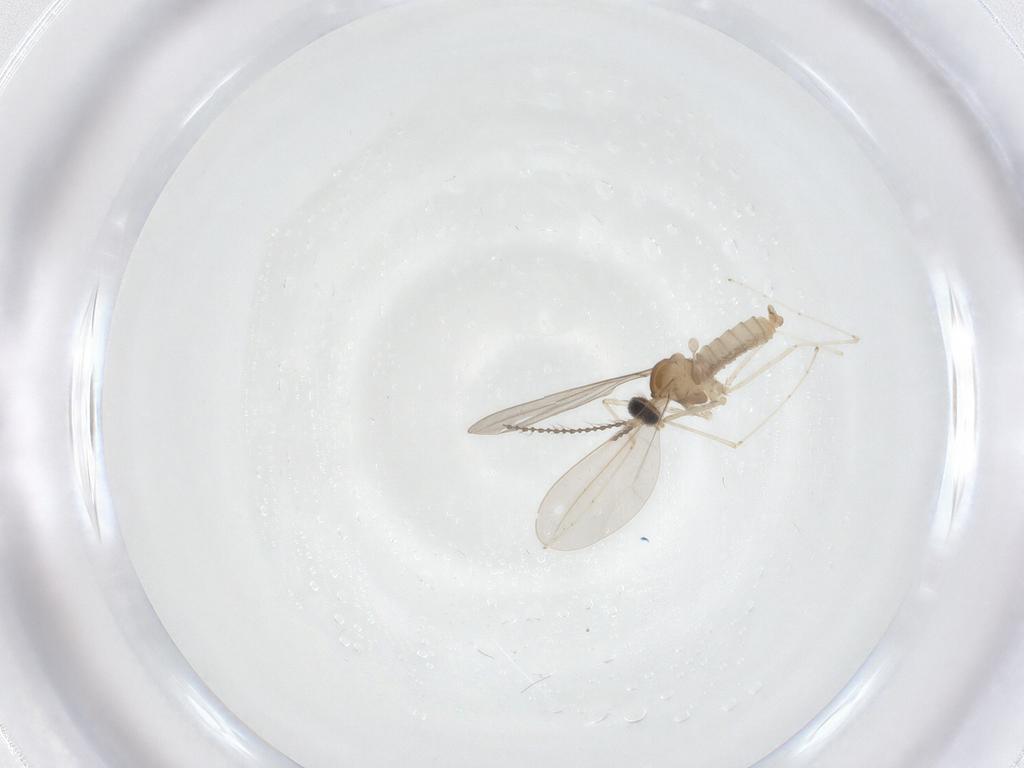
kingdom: Animalia
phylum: Arthropoda
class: Insecta
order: Diptera
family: Cecidomyiidae
